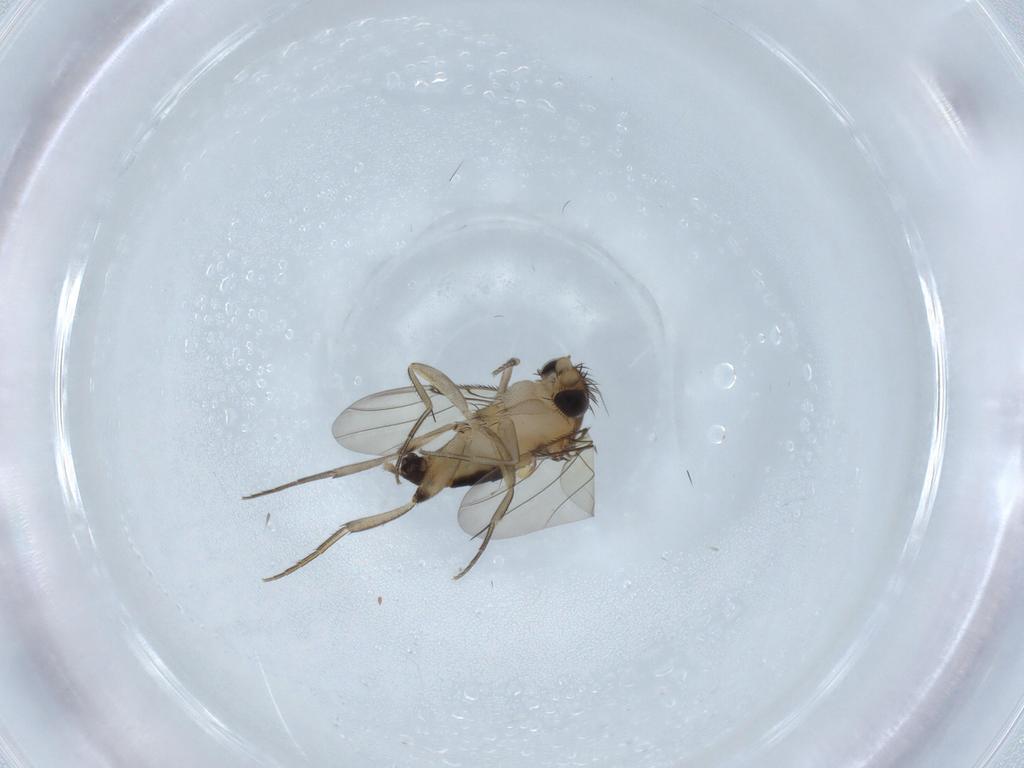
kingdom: Animalia
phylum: Arthropoda
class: Insecta
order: Diptera
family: Phoridae
